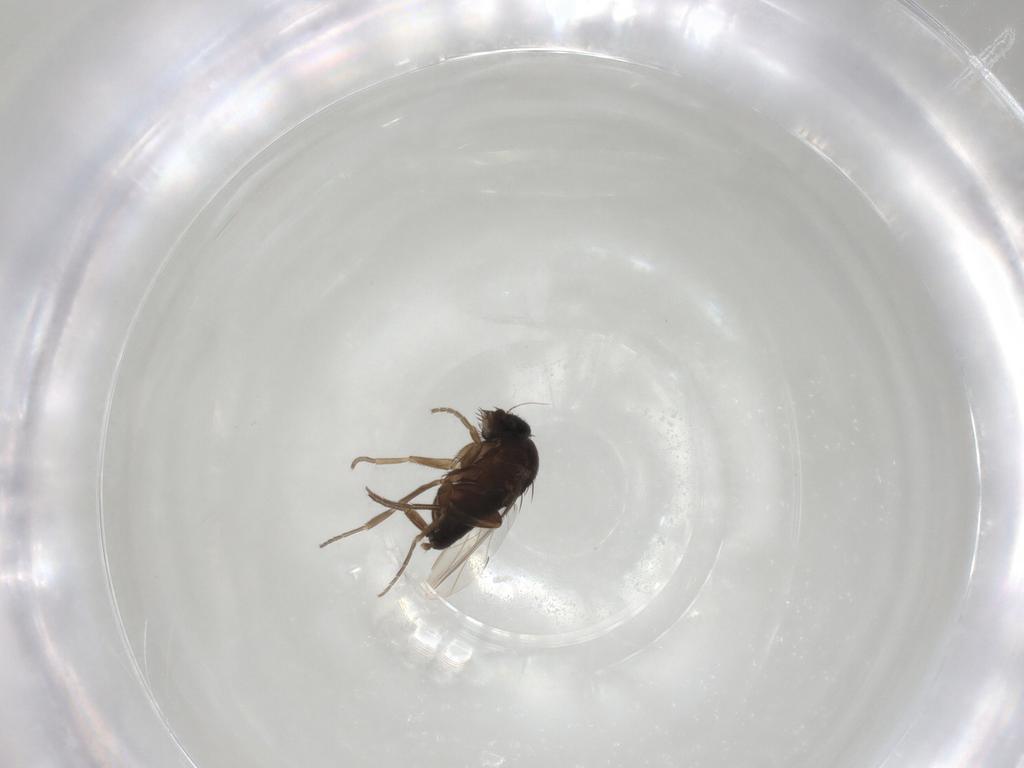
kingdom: Animalia
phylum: Arthropoda
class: Insecta
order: Diptera
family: Phoridae
